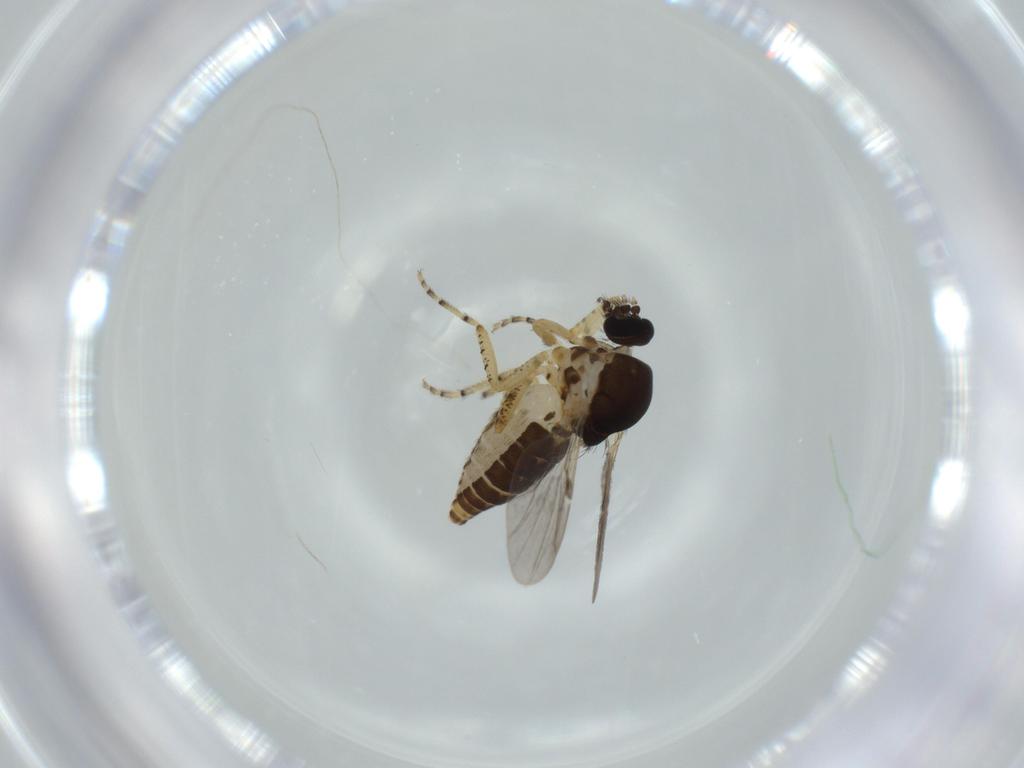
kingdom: Animalia
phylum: Arthropoda
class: Insecta
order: Diptera
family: Ceratopogonidae
